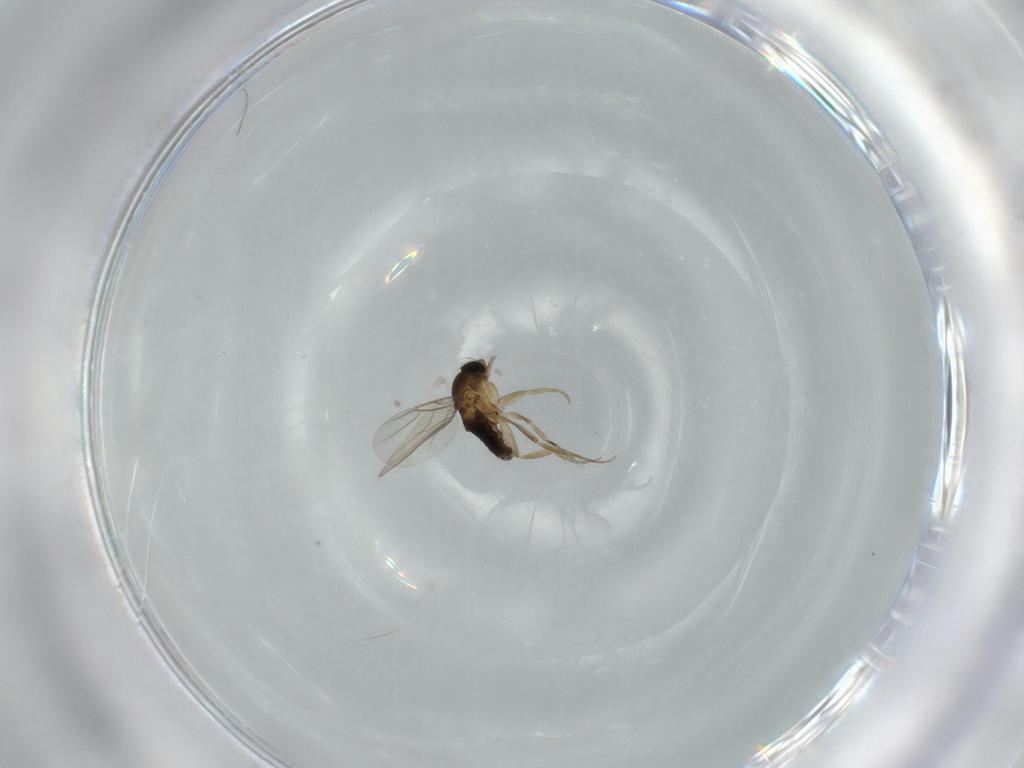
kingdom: Animalia
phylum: Arthropoda
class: Insecta
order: Diptera
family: Phoridae
